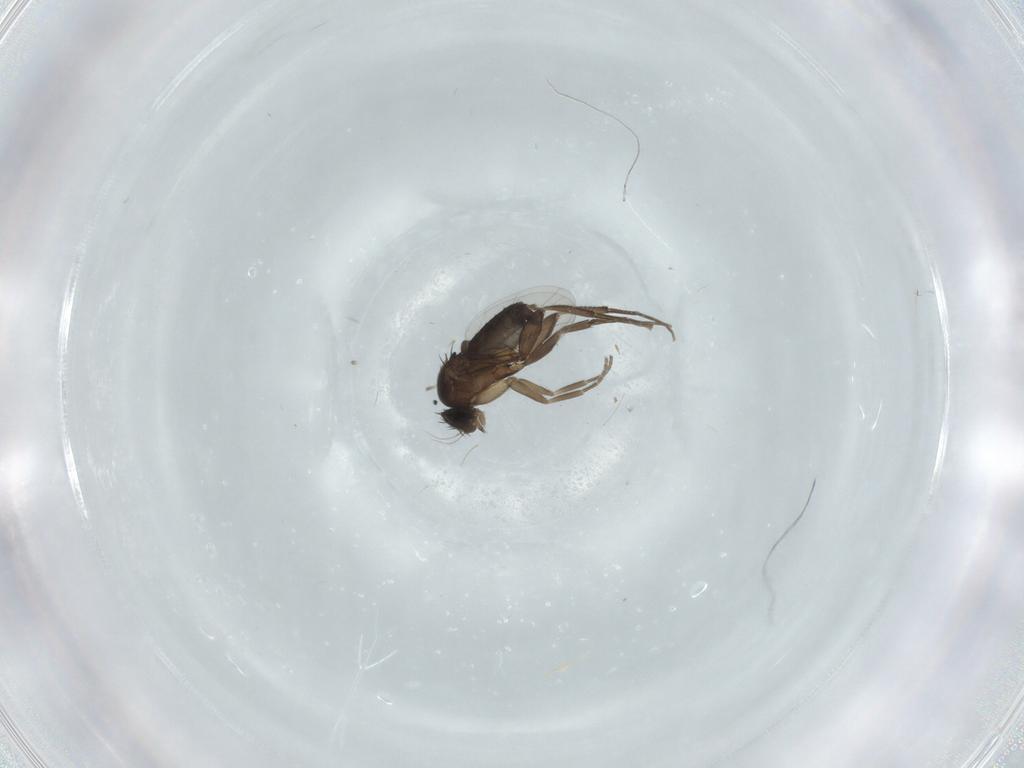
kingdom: Animalia
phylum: Arthropoda
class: Insecta
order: Diptera
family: Phoridae
